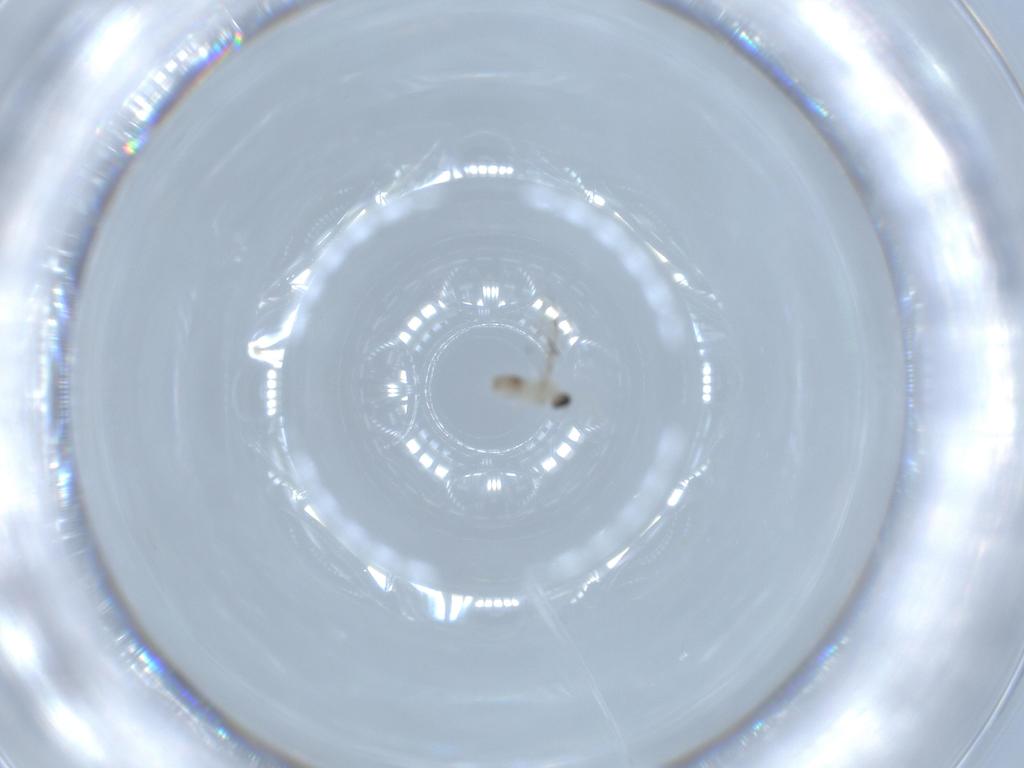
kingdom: Animalia
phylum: Arthropoda
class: Insecta
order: Diptera
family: Cecidomyiidae
